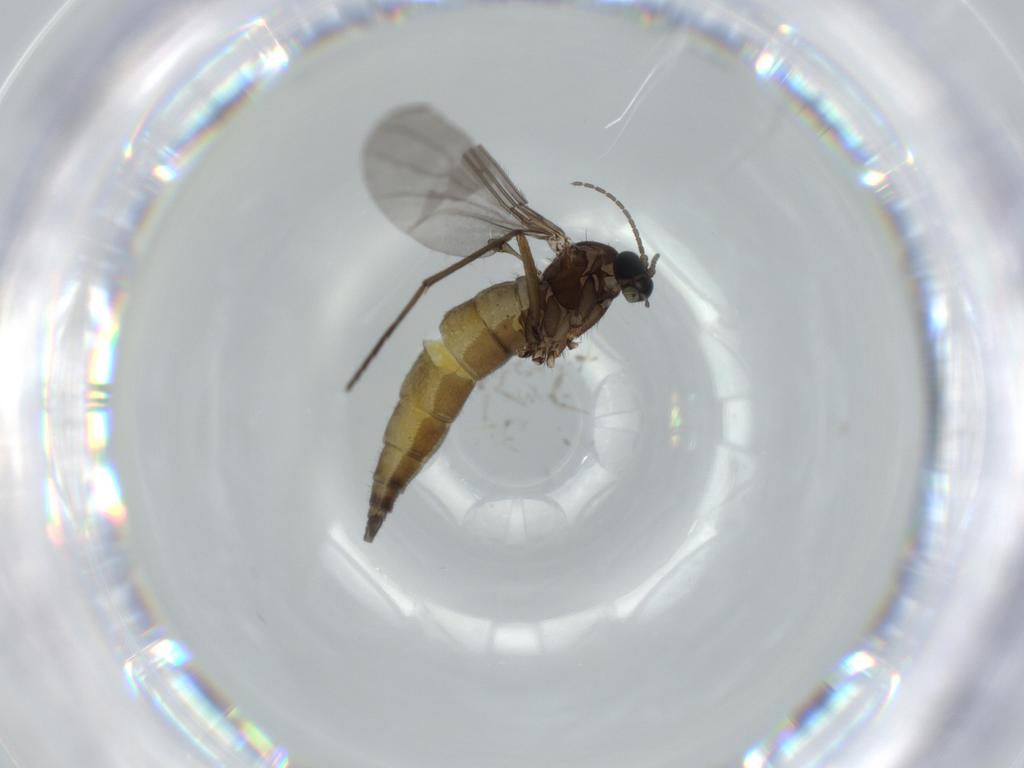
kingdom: Animalia
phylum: Arthropoda
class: Insecta
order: Diptera
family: Sciaridae
